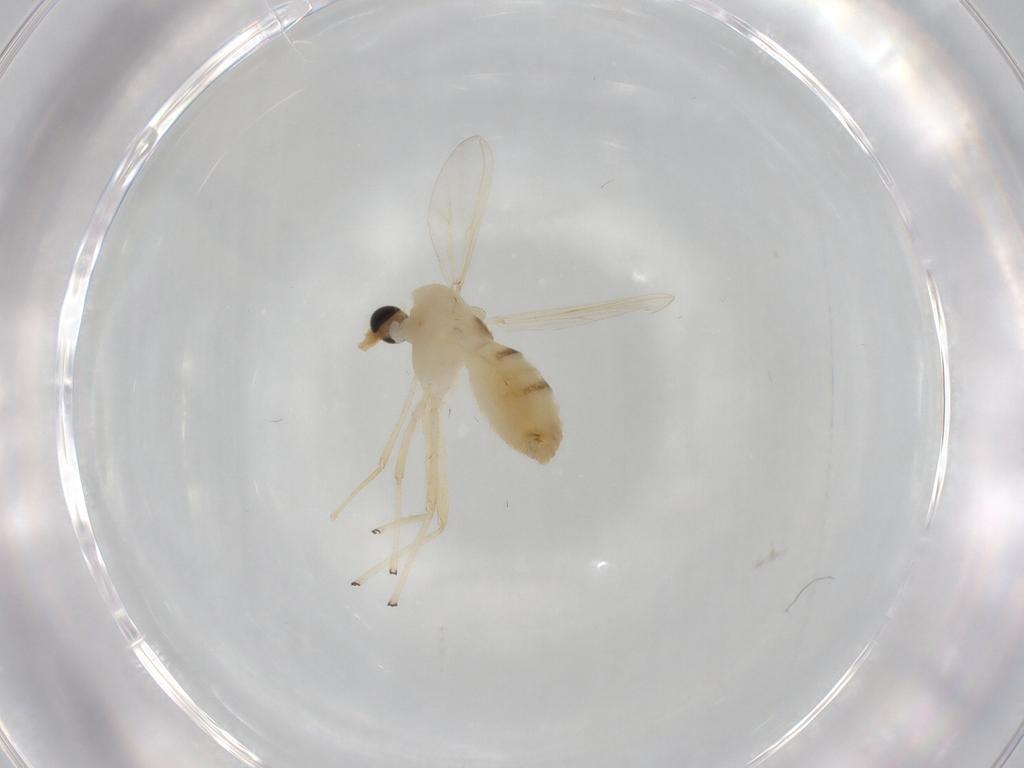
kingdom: Animalia
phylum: Arthropoda
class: Insecta
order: Diptera
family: Chironomidae
